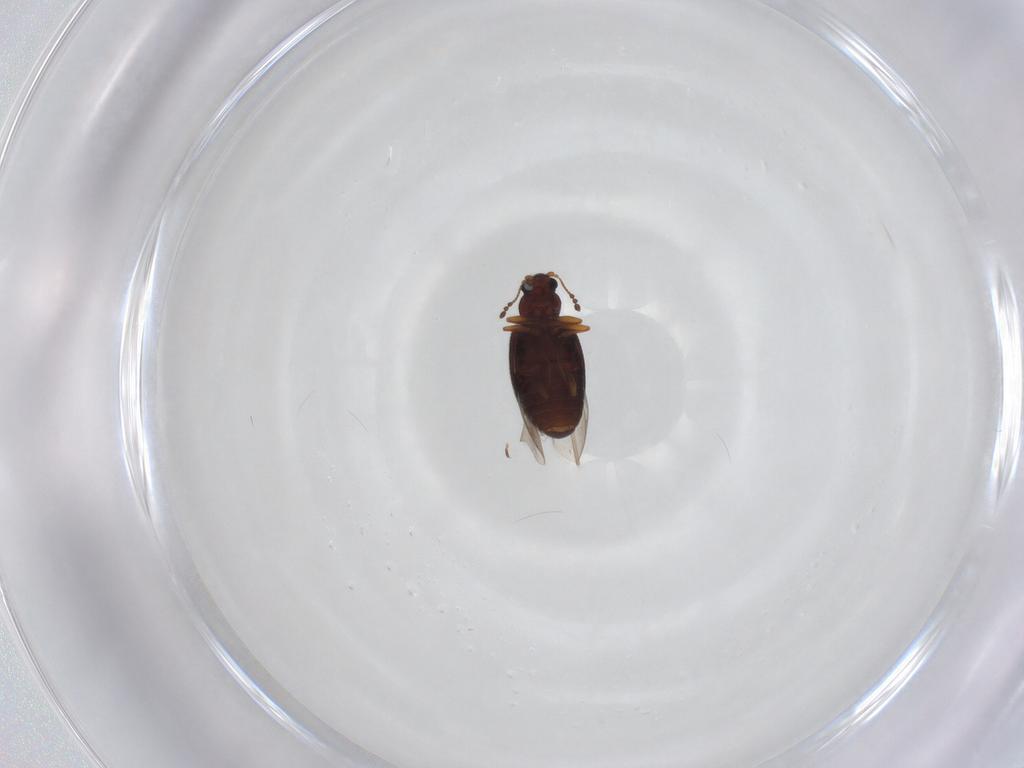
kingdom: Animalia
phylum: Arthropoda
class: Insecta
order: Coleoptera
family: Latridiidae
